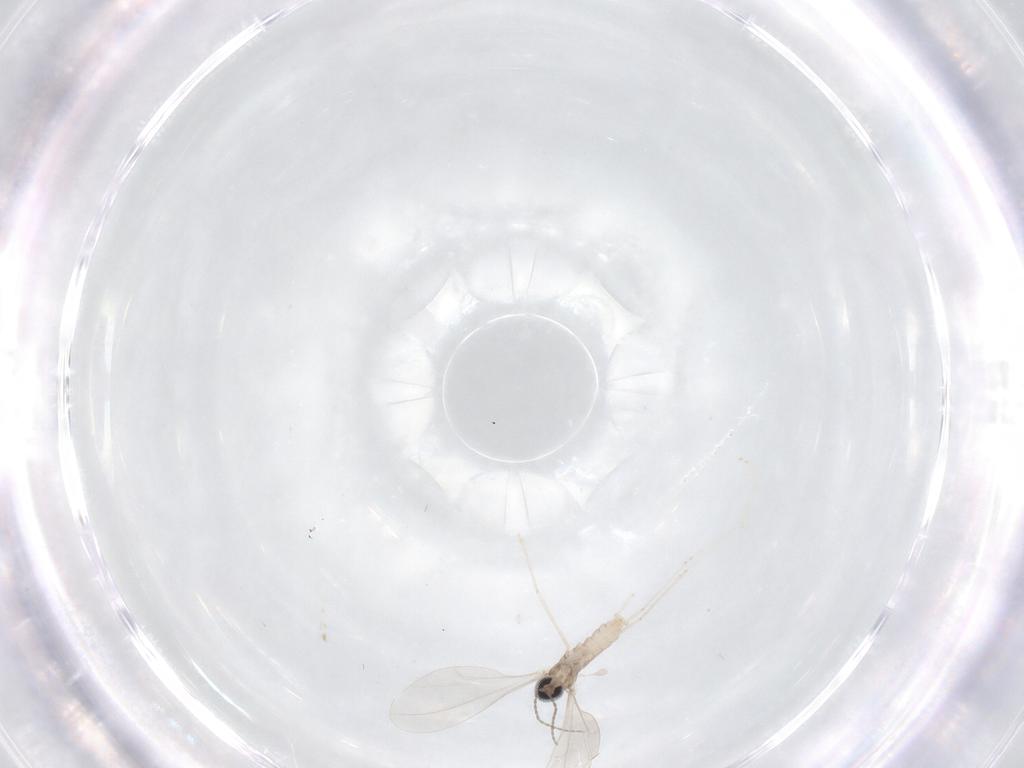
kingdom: Animalia
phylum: Arthropoda
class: Insecta
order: Diptera
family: Cecidomyiidae
